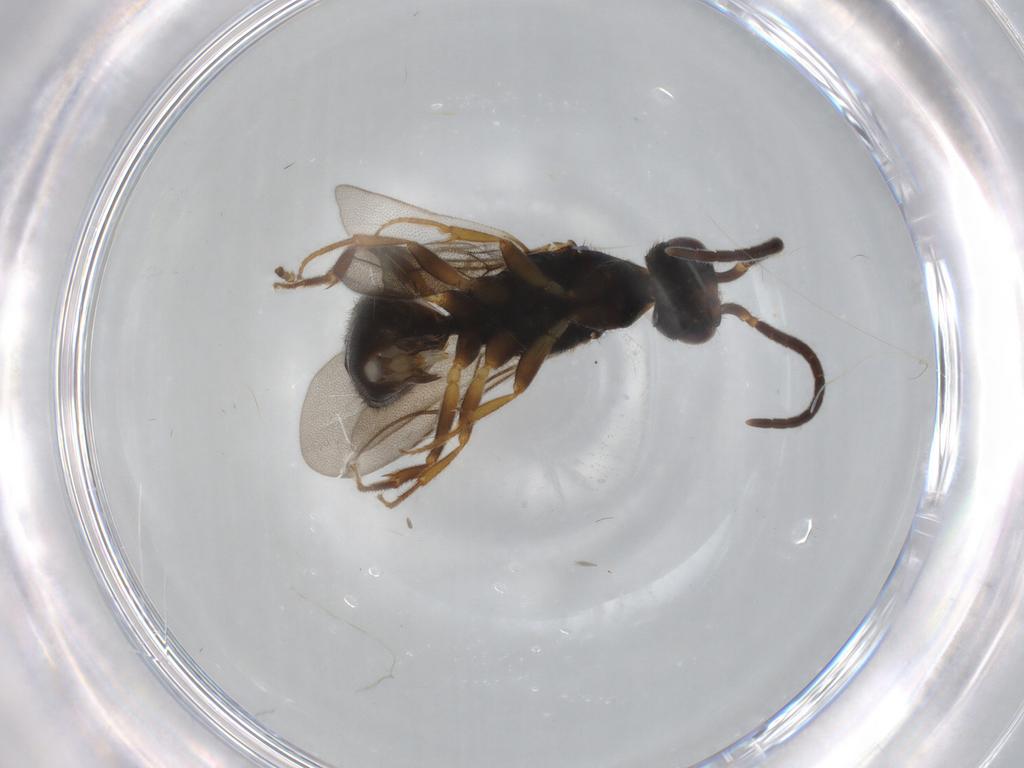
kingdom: Animalia
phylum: Arthropoda
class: Insecta
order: Hymenoptera
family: Bethylidae
